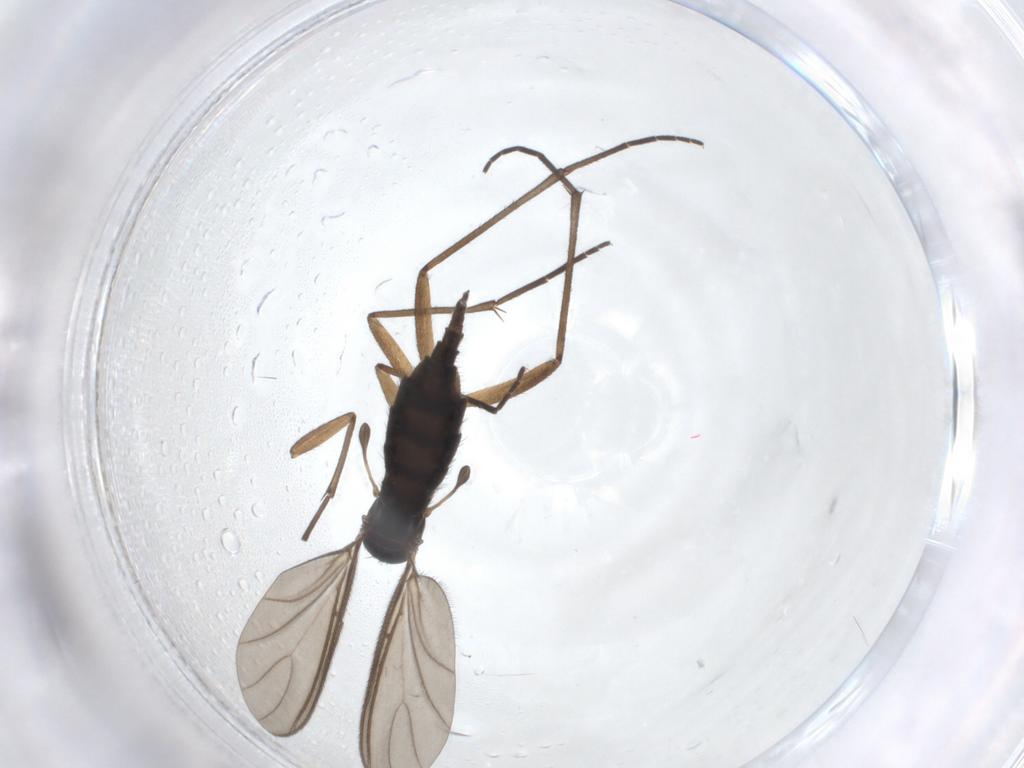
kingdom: Animalia
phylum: Arthropoda
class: Insecta
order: Diptera
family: Sciaridae
